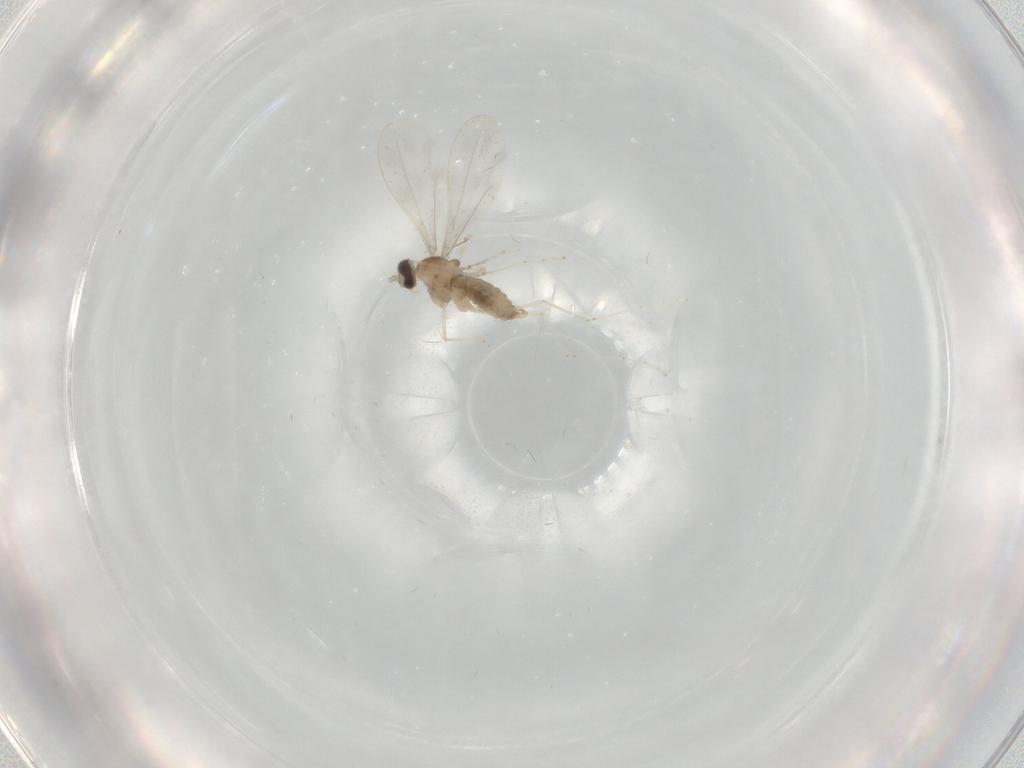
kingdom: Animalia
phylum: Arthropoda
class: Insecta
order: Diptera
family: Cecidomyiidae
